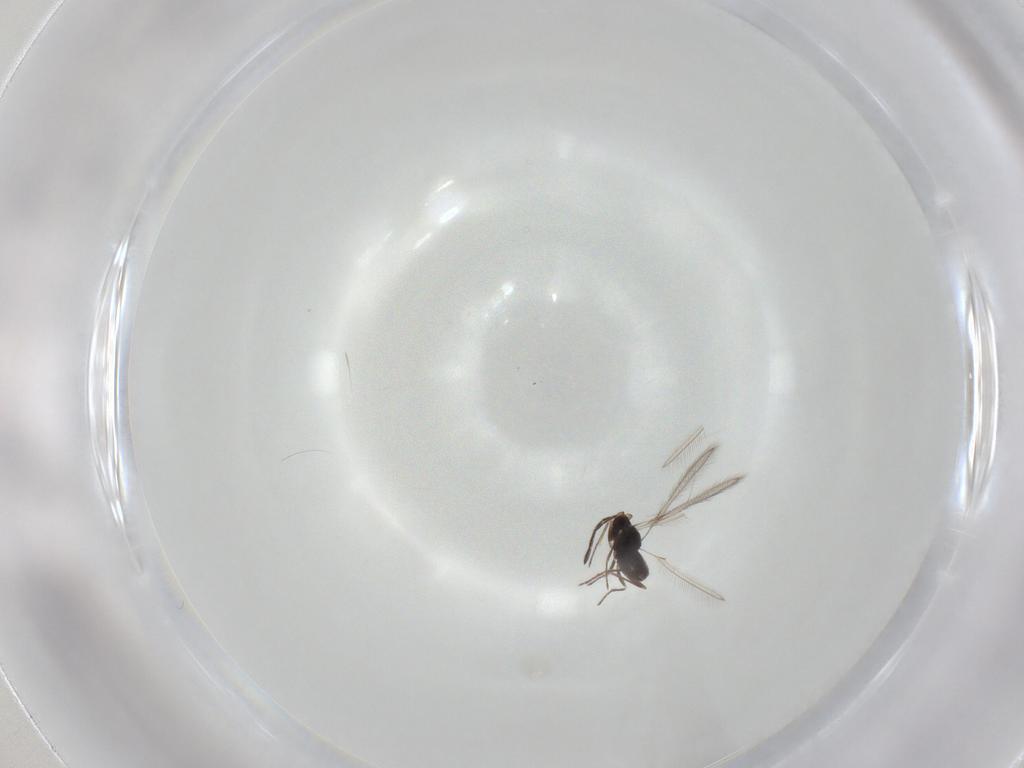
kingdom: Animalia
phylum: Arthropoda
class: Insecta
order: Hymenoptera
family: Mymaridae
